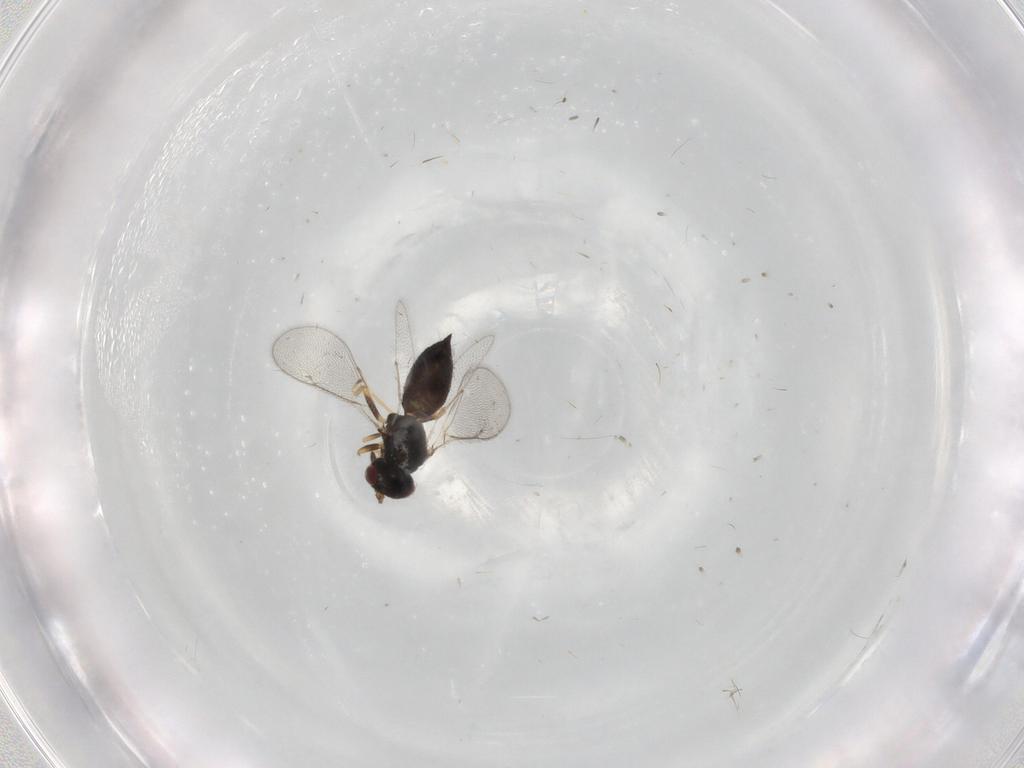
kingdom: Animalia
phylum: Arthropoda
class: Insecta
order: Hymenoptera
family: Eulophidae
